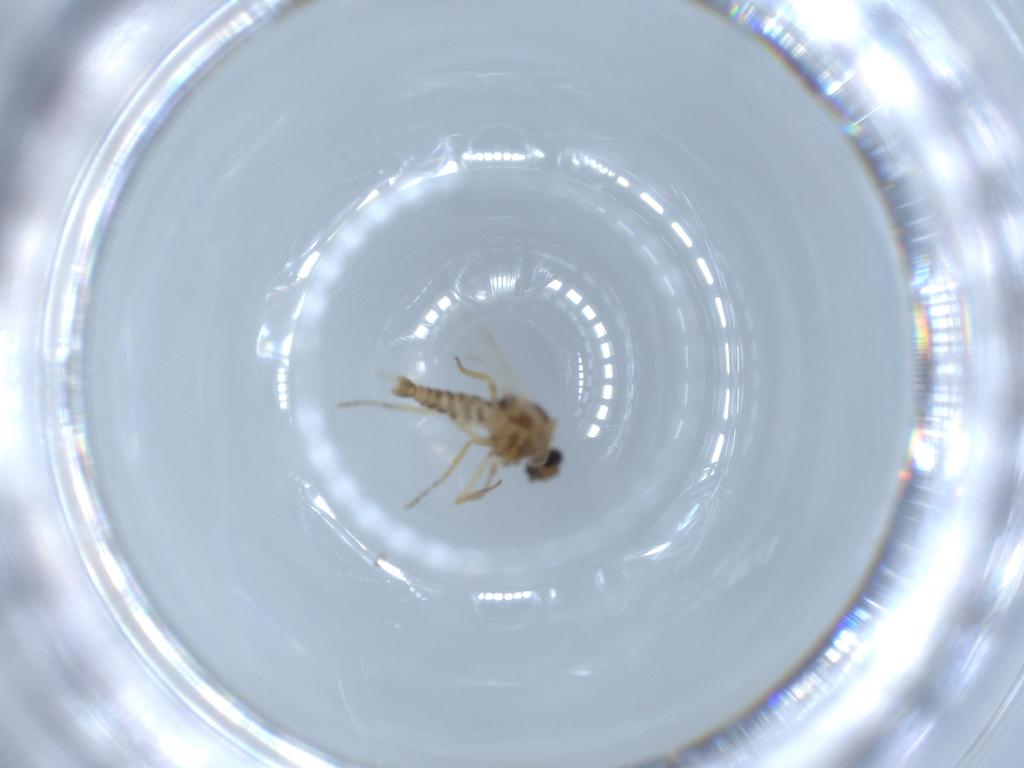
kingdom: Animalia
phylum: Arthropoda
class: Insecta
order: Diptera
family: Ceratopogonidae
